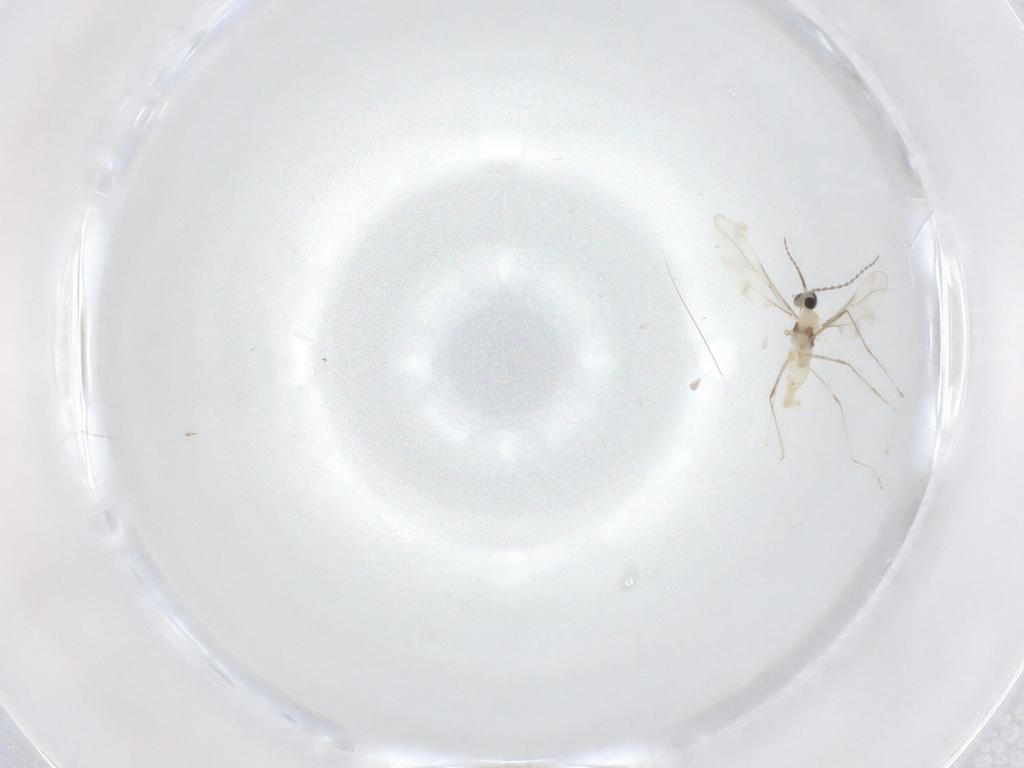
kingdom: Animalia
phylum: Arthropoda
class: Insecta
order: Diptera
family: Cecidomyiidae
